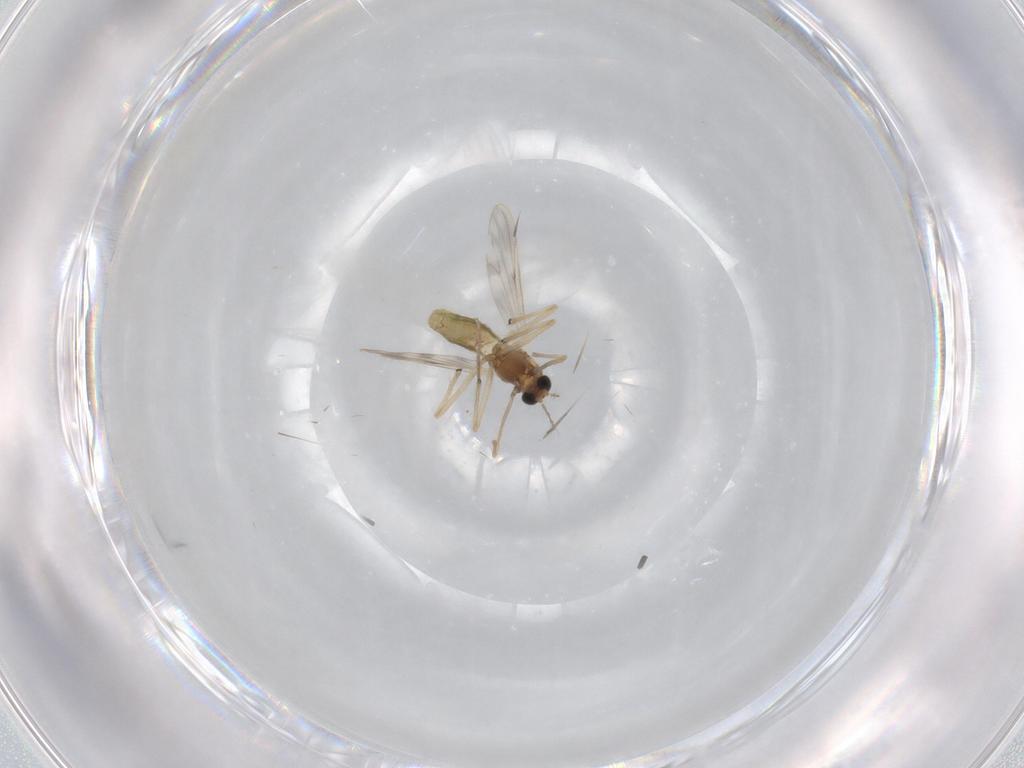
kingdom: Animalia
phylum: Arthropoda
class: Insecta
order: Diptera
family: Chironomidae
